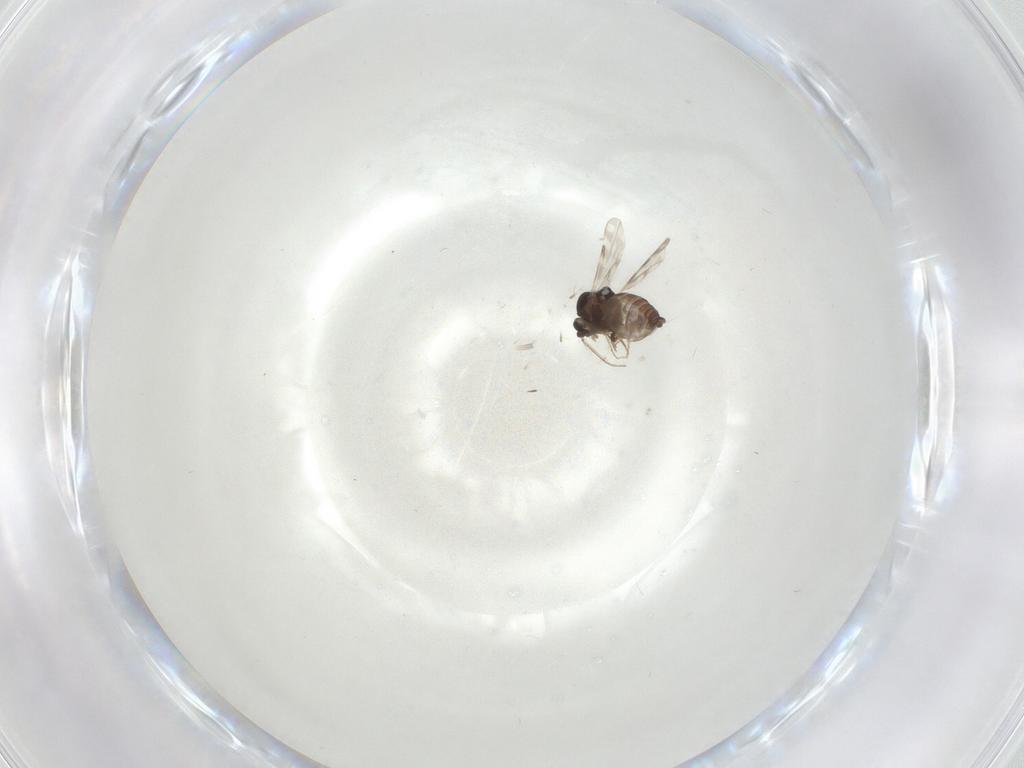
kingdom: Animalia
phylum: Arthropoda
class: Insecta
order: Diptera
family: Ceratopogonidae
